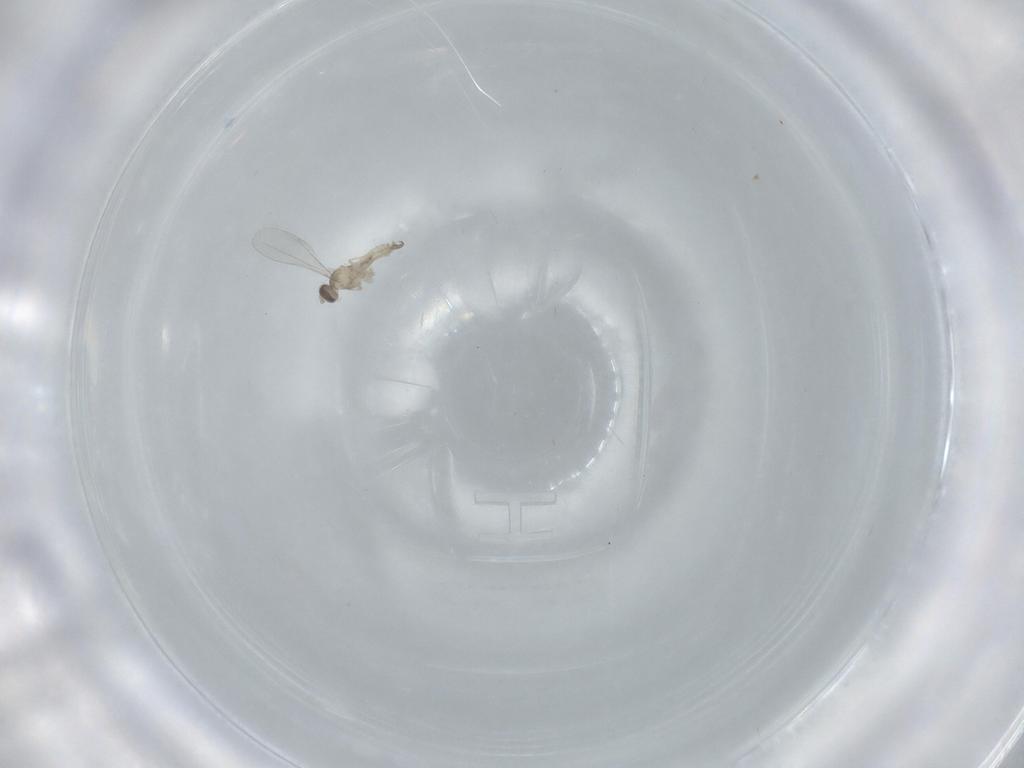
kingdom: Animalia
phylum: Arthropoda
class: Insecta
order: Diptera
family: Cecidomyiidae
